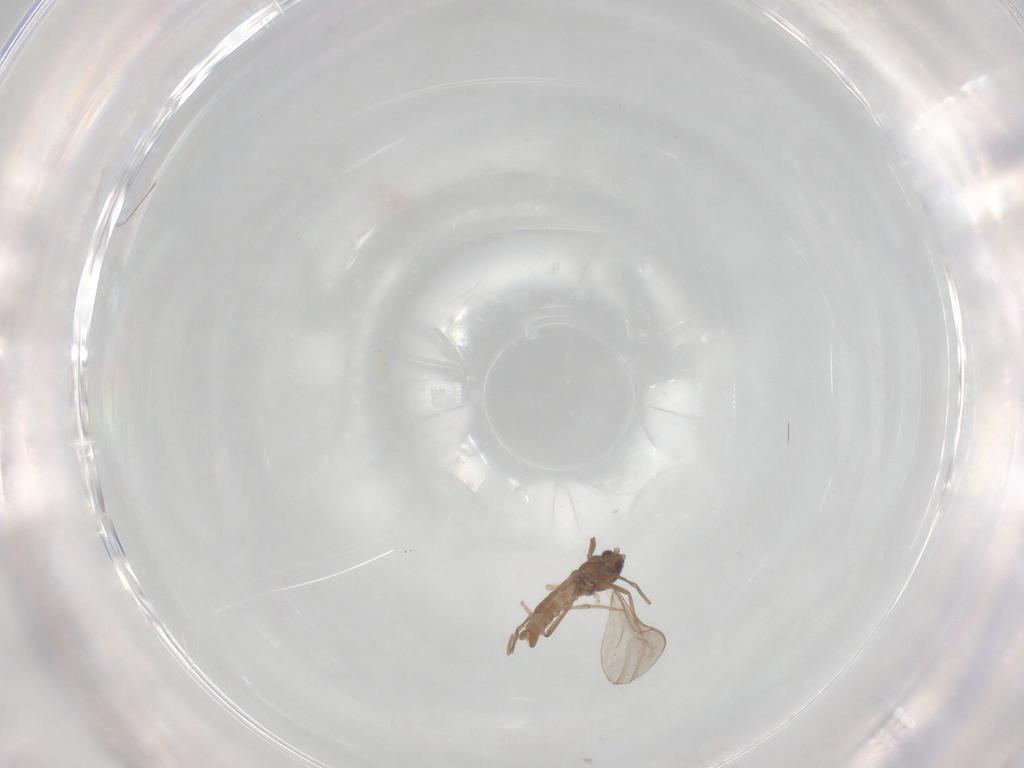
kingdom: Animalia
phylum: Arthropoda
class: Insecta
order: Diptera
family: Cecidomyiidae
